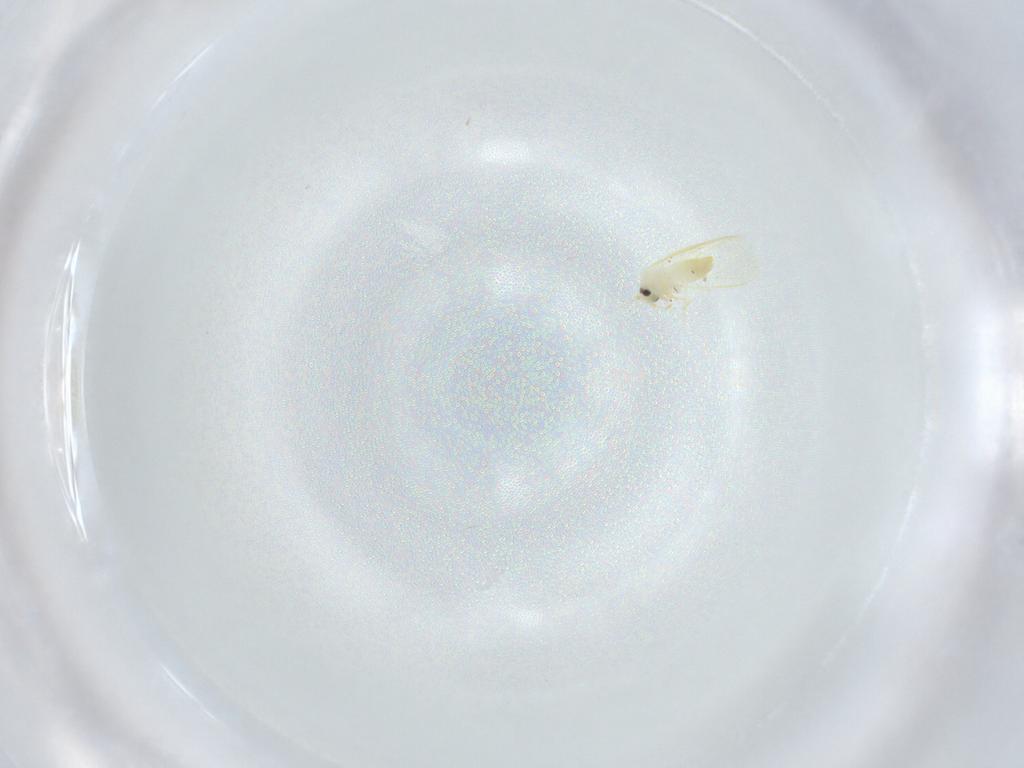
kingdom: Animalia
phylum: Arthropoda
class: Insecta
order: Hemiptera
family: Aleyrodidae
